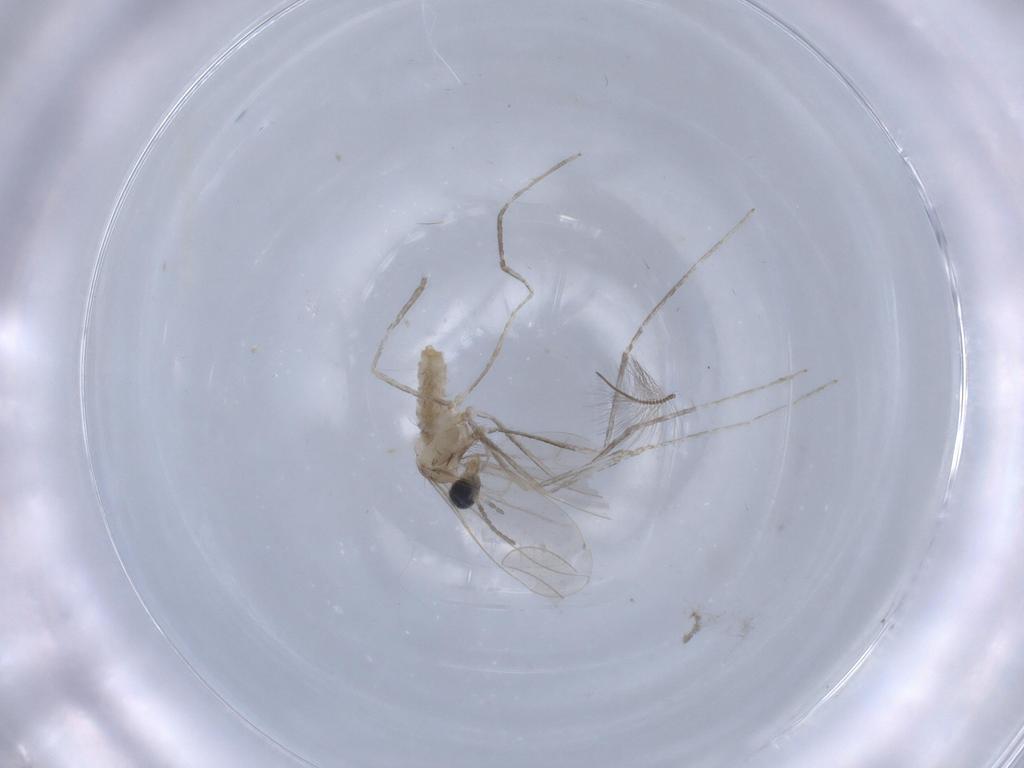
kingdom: Animalia
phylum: Arthropoda
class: Insecta
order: Diptera
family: Cecidomyiidae
